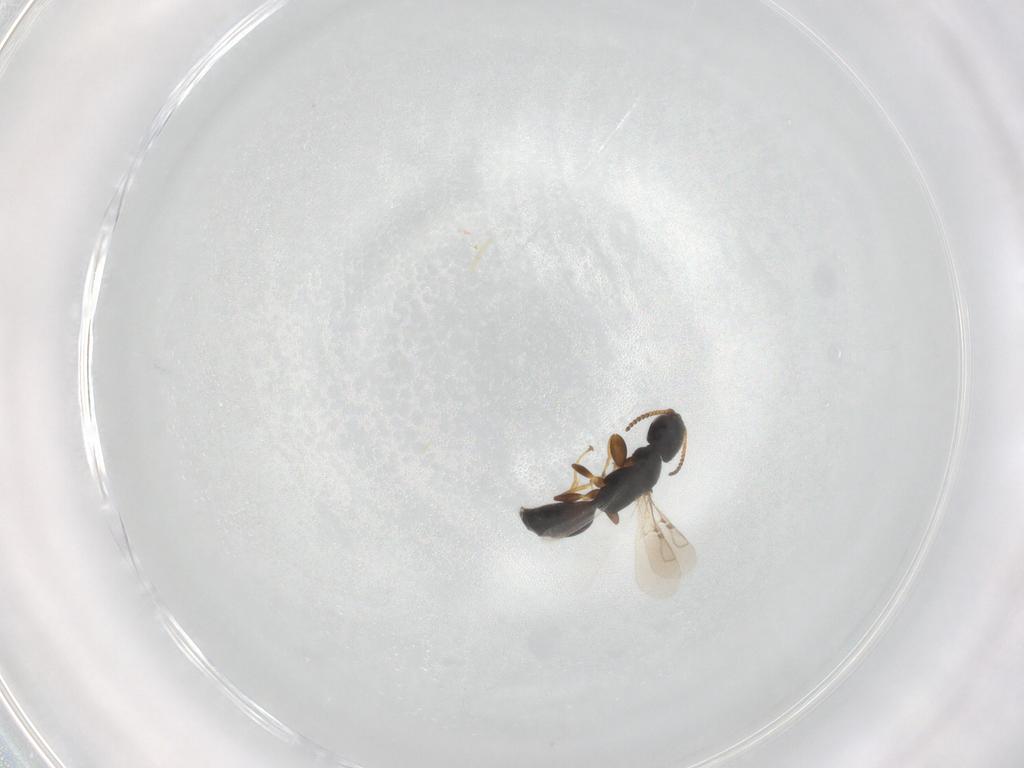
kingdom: Animalia
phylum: Arthropoda
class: Insecta
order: Hymenoptera
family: Bethylidae
